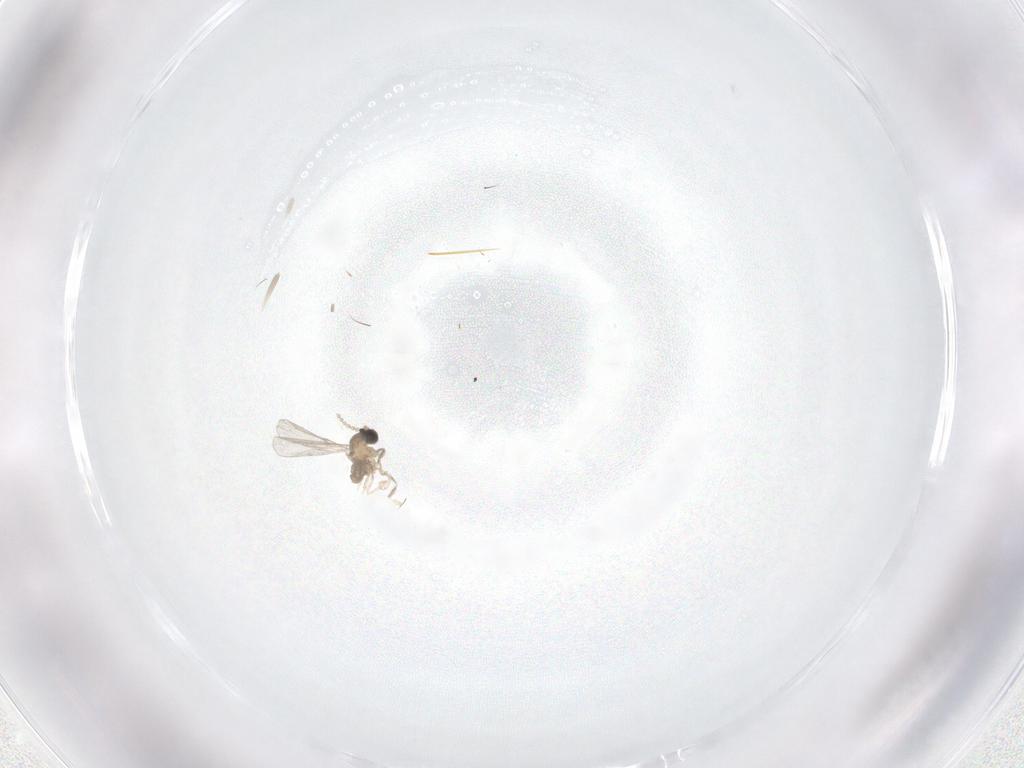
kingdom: Animalia
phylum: Arthropoda
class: Insecta
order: Diptera
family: Cecidomyiidae
